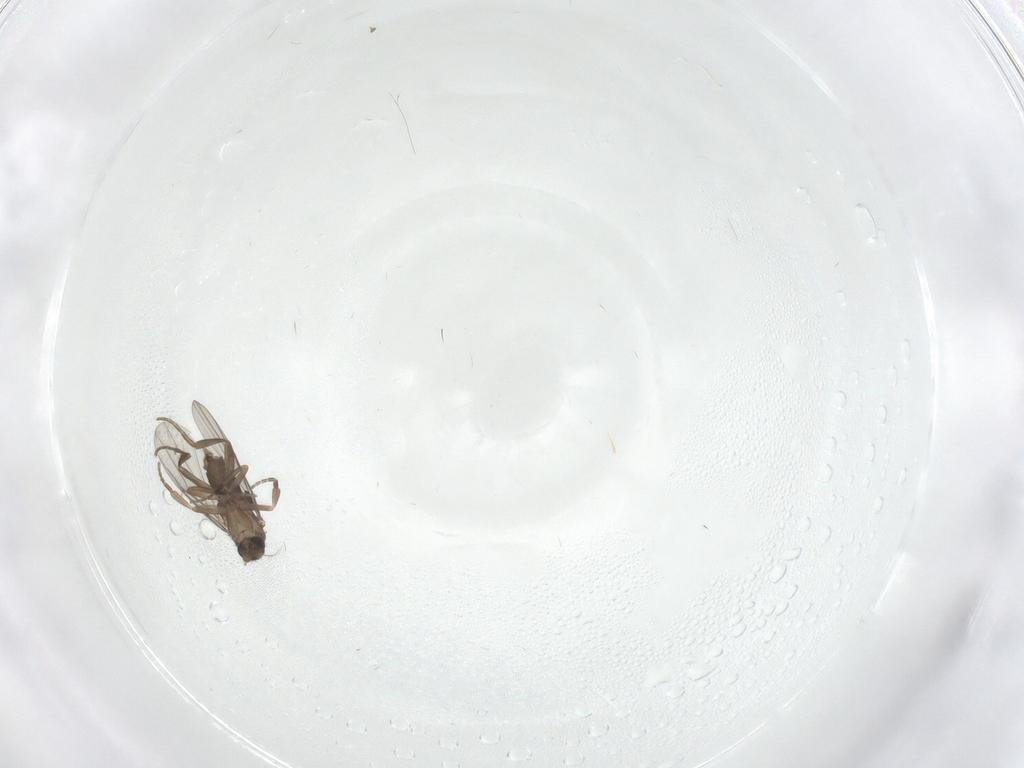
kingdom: Animalia
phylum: Arthropoda
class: Insecta
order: Diptera
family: Phoridae
